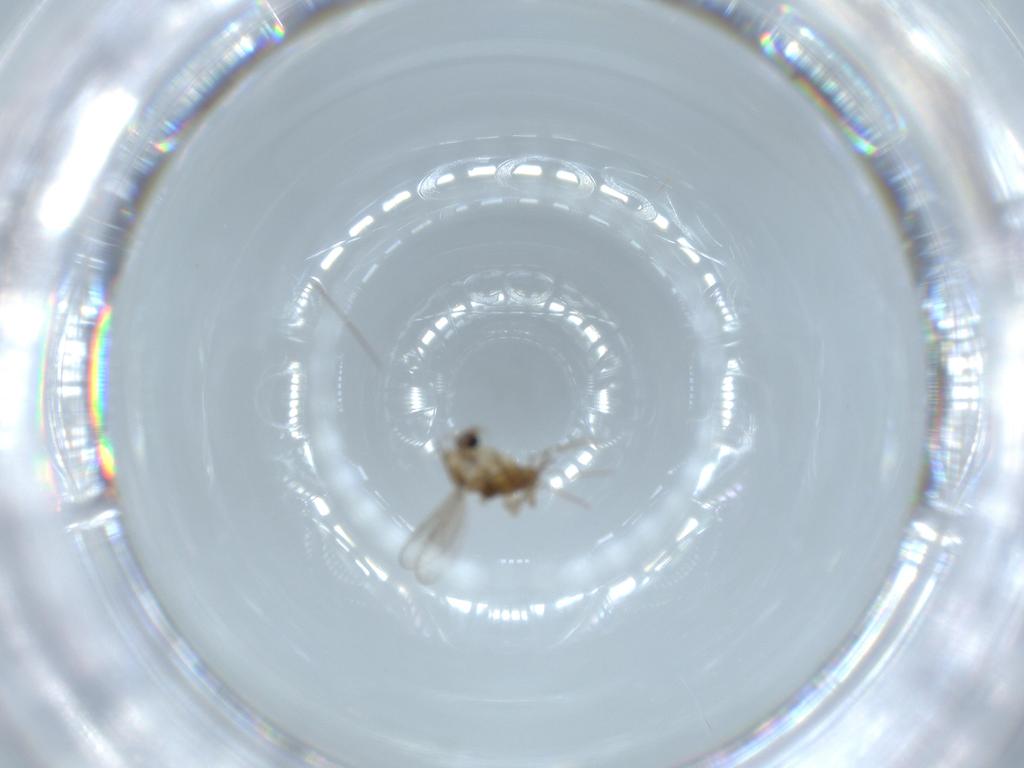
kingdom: Animalia
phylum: Arthropoda
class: Insecta
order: Diptera
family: Chironomidae
